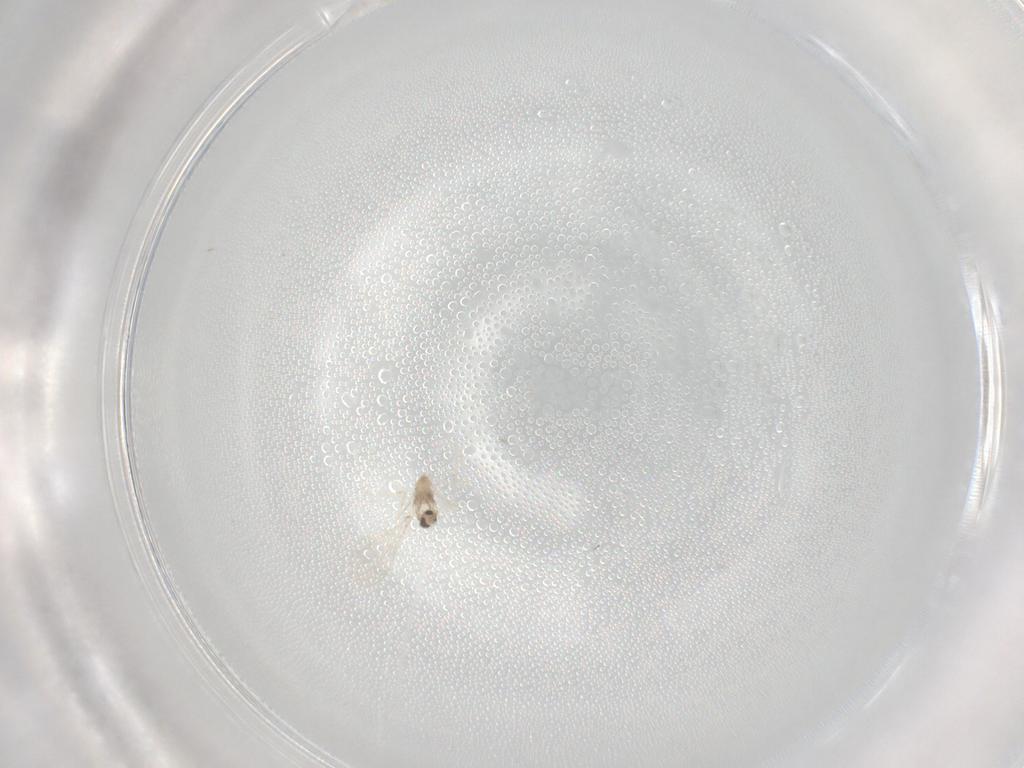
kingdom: Animalia
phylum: Arthropoda
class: Insecta
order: Diptera
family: Cecidomyiidae
